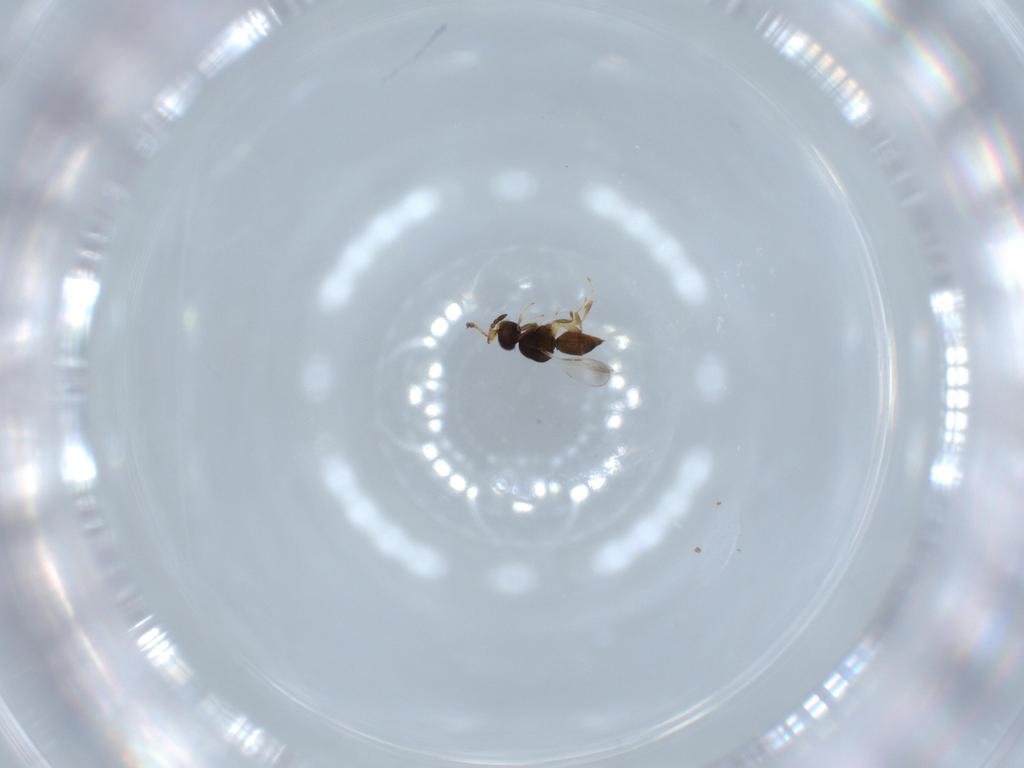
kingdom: Animalia
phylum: Arthropoda
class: Insecta
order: Hymenoptera
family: Ceraphronidae
